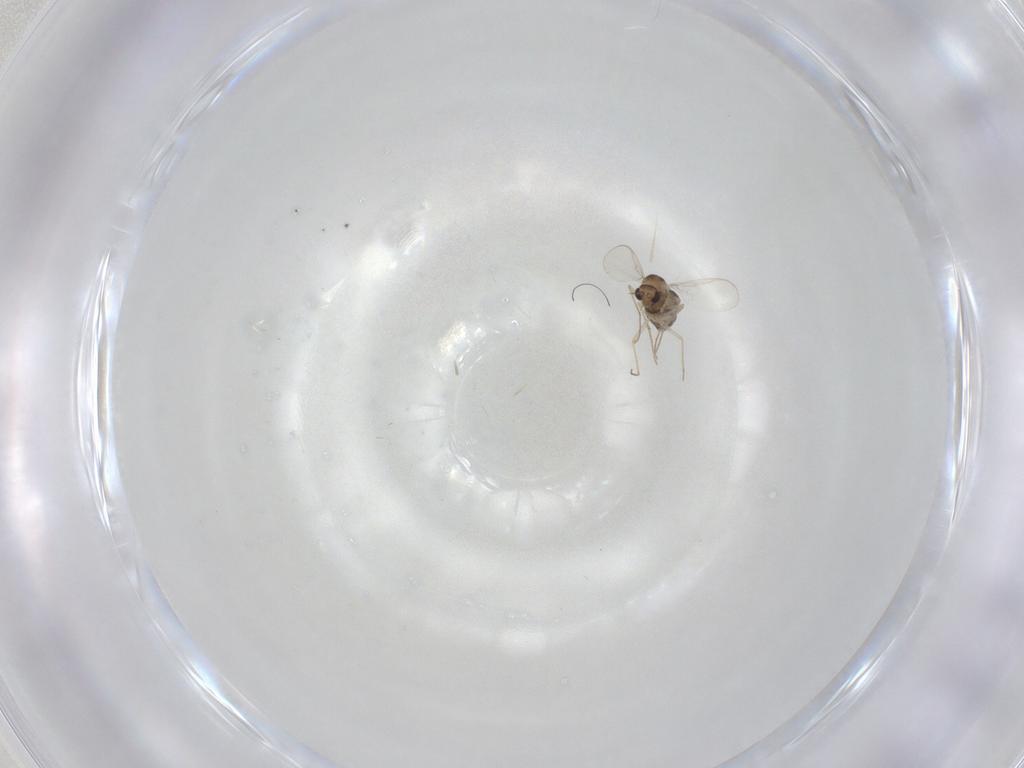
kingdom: Animalia
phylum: Arthropoda
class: Insecta
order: Diptera
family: Chironomidae
